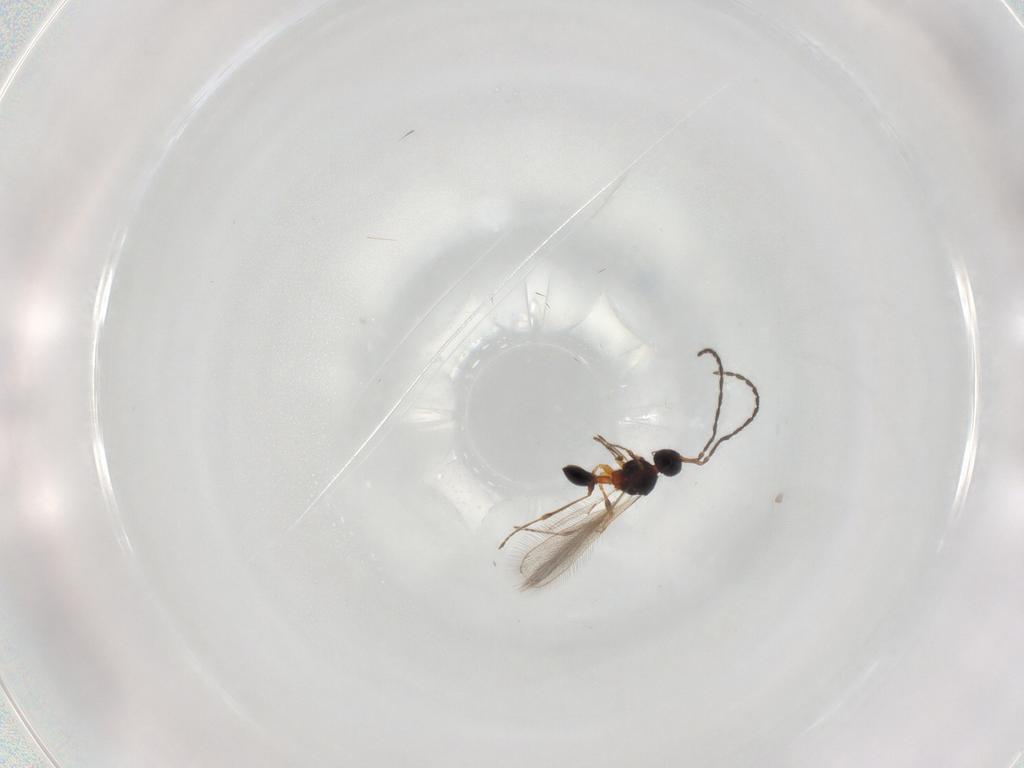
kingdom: Animalia
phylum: Arthropoda
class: Insecta
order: Hymenoptera
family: Diapriidae
